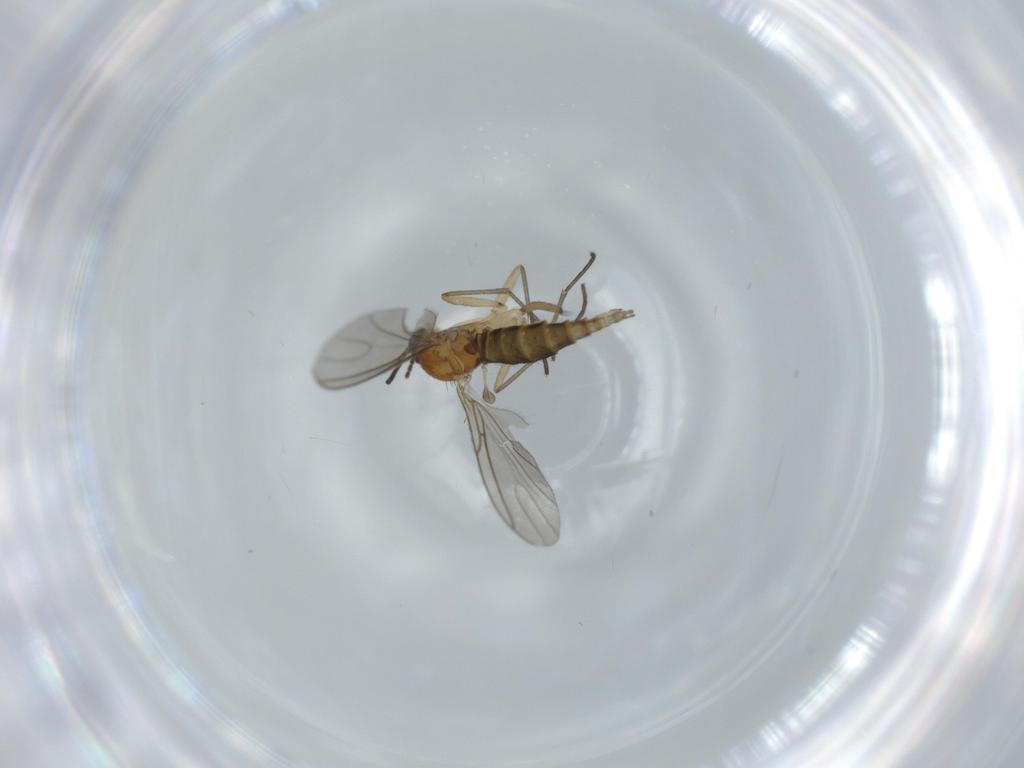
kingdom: Animalia
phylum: Arthropoda
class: Insecta
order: Diptera
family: Sciaridae
